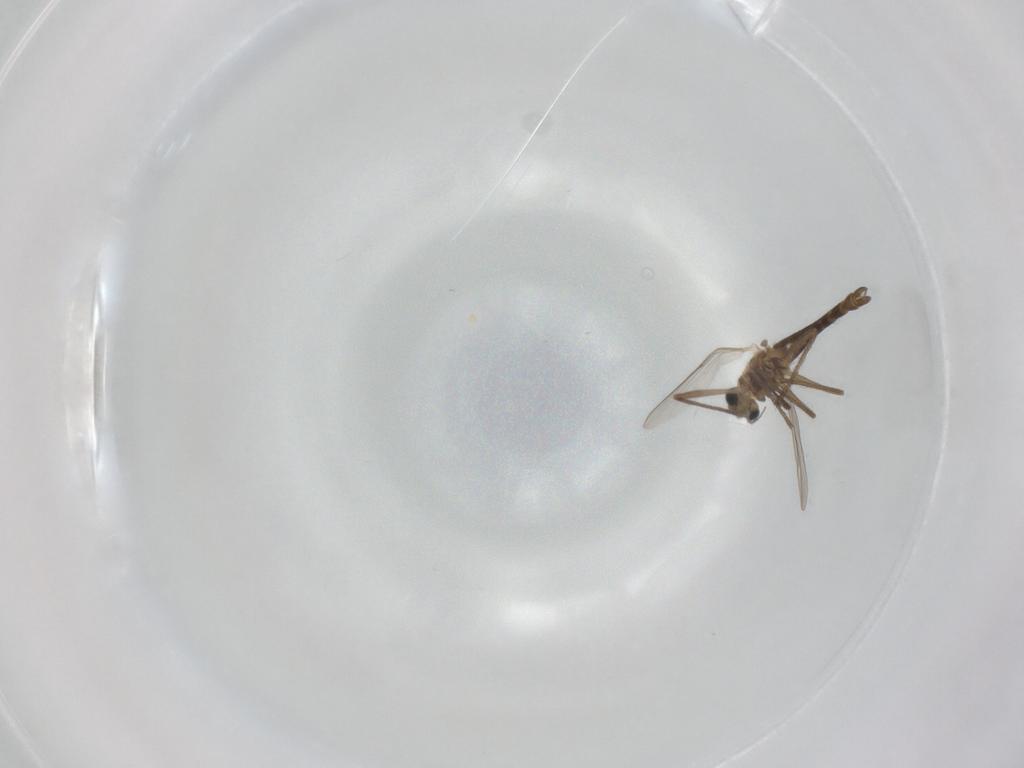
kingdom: Animalia
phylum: Arthropoda
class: Insecta
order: Diptera
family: Chironomidae
